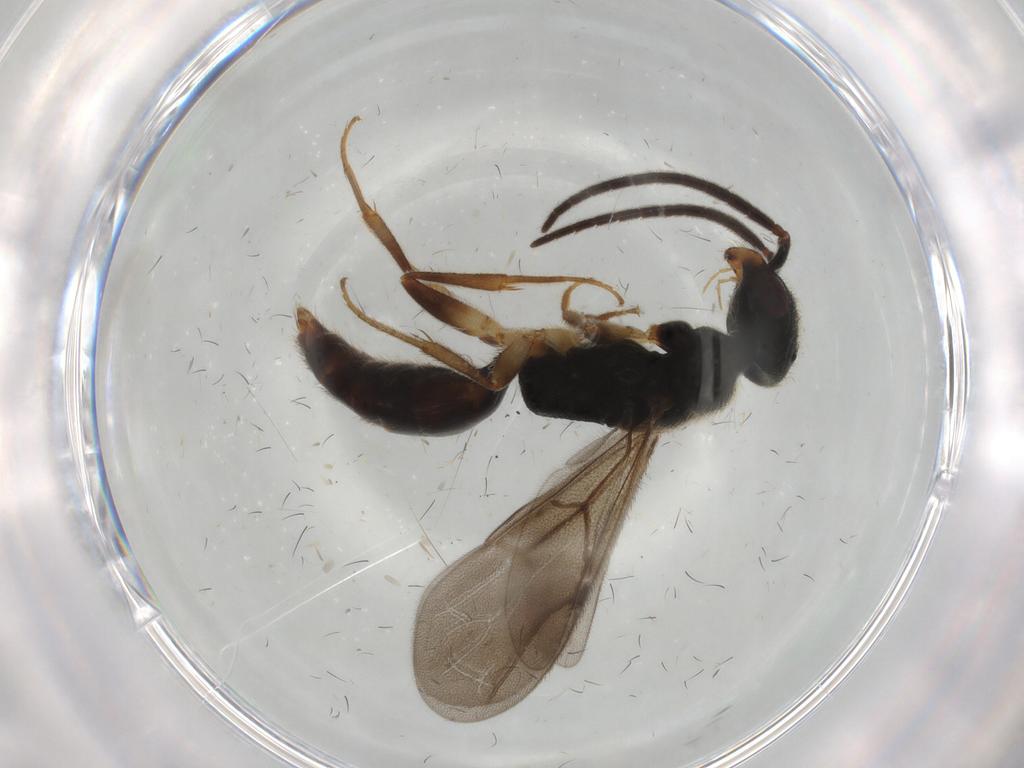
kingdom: Animalia
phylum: Arthropoda
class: Insecta
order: Hymenoptera
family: Bethylidae
